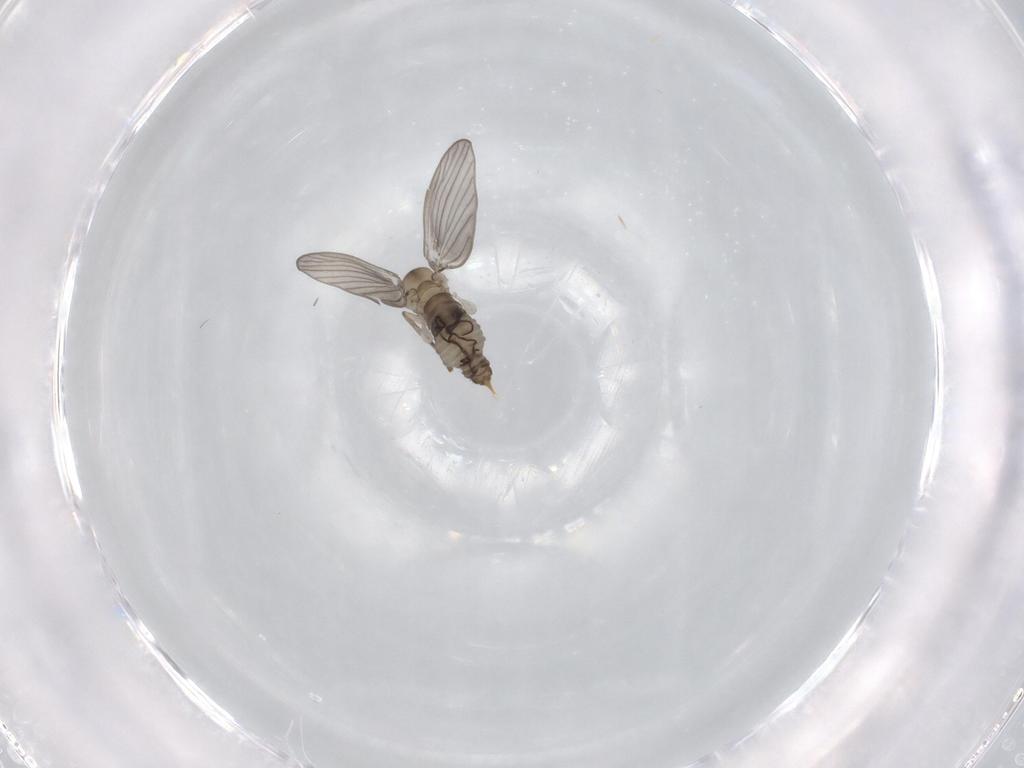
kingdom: Animalia
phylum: Arthropoda
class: Insecta
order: Diptera
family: Psychodidae
